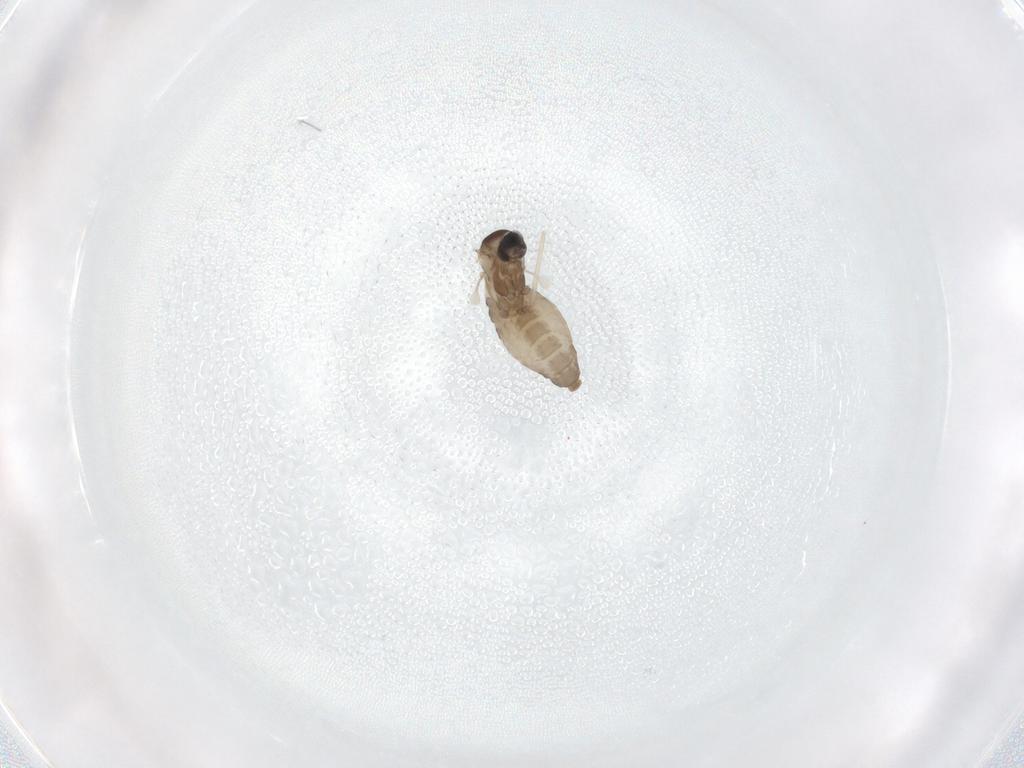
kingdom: Animalia
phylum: Arthropoda
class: Insecta
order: Diptera
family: Cecidomyiidae
